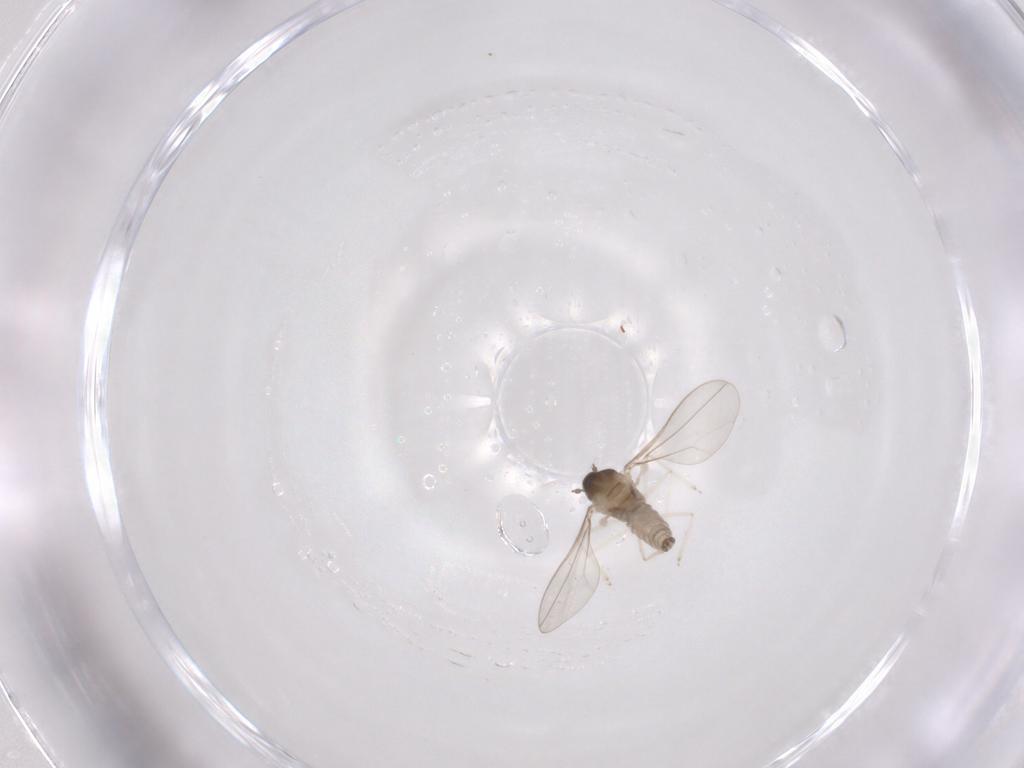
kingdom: Animalia
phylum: Arthropoda
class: Insecta
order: Diptera
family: Cecidomyiidae
